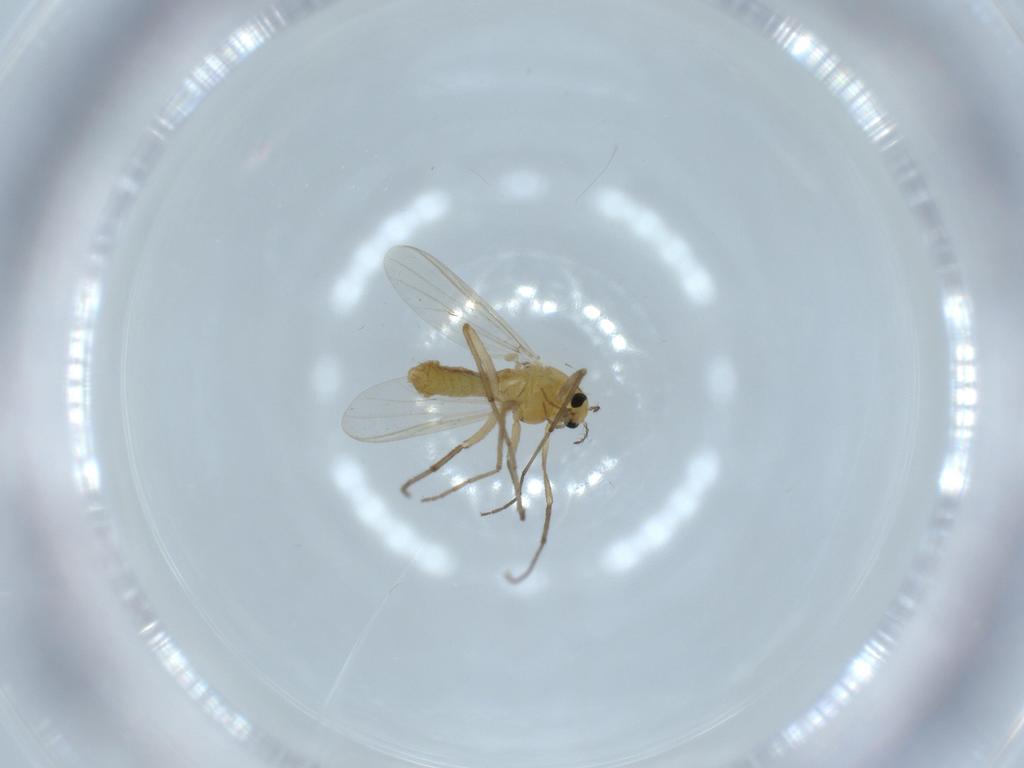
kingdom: Animalia
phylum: Arthropoda
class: Insecta
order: Diptera
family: Chironomidae
